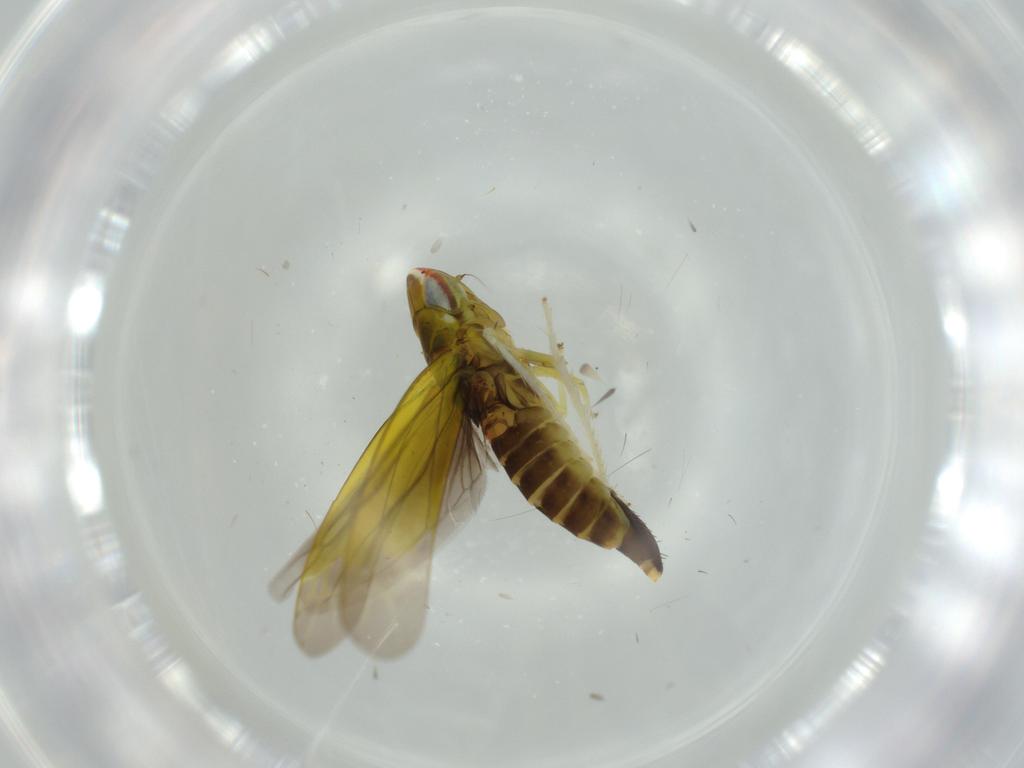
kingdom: Animalia
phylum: Arthropoda
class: Insecta
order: Hemiptera
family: Cicadellidae
